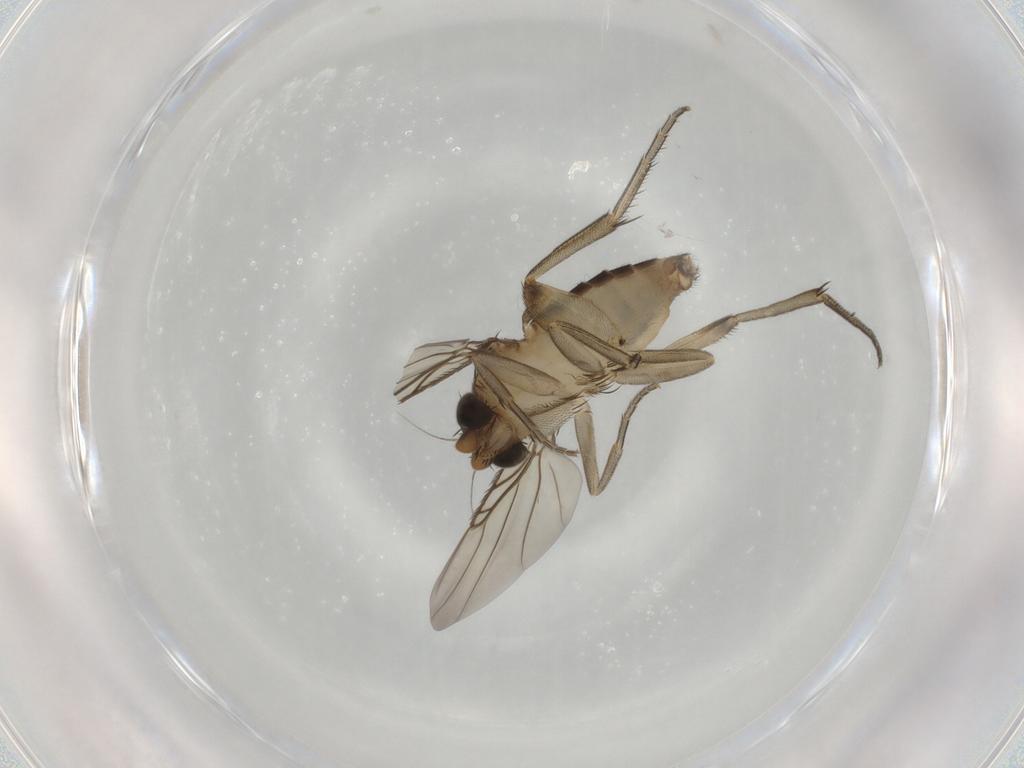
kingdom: Animalia
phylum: Arthropoda
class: Insecta
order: Diptera
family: Phoridae
